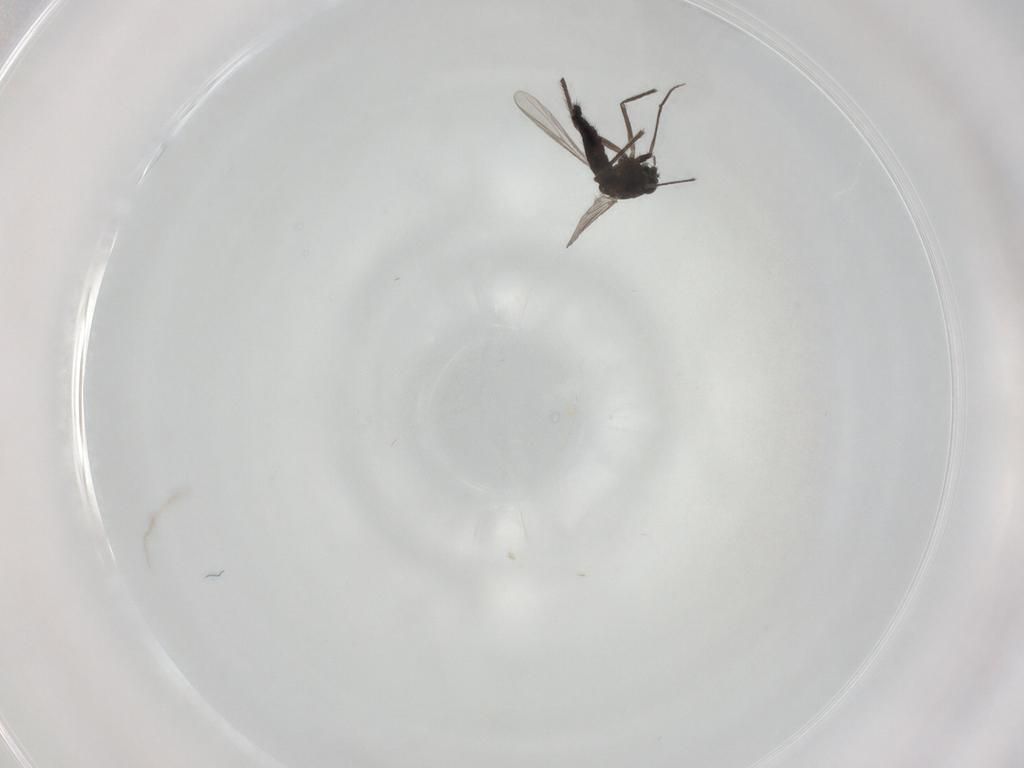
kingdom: Animalia
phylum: Arthropoda
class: Insecta
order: Diptera
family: Chironomidae
